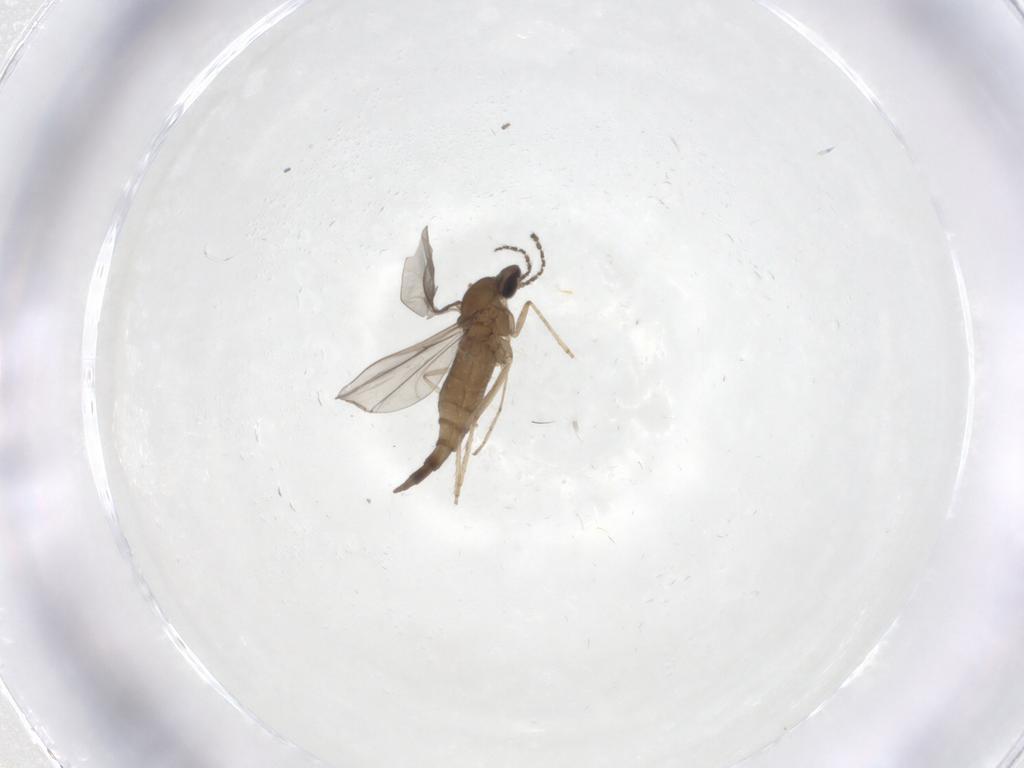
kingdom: Animalia
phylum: Arthropoda
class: Insecta
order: Diptera
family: Cecidomyiidae
